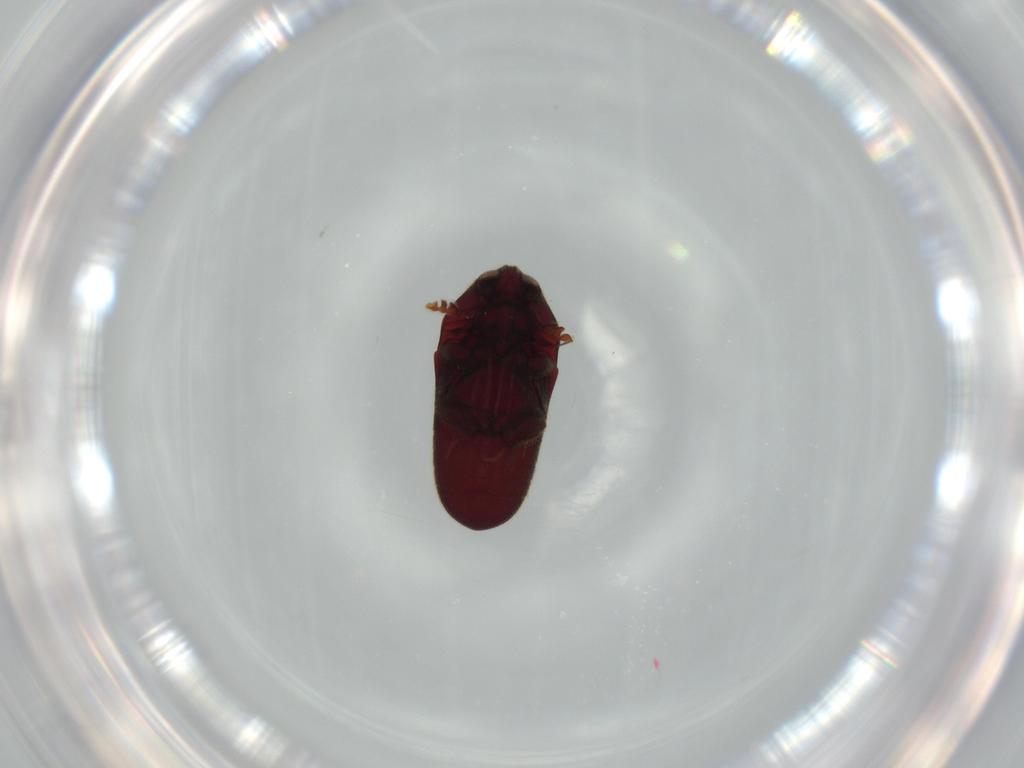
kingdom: Animalia
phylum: Arthropoda
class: Insecta
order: Coleoptera
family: Throscidae
